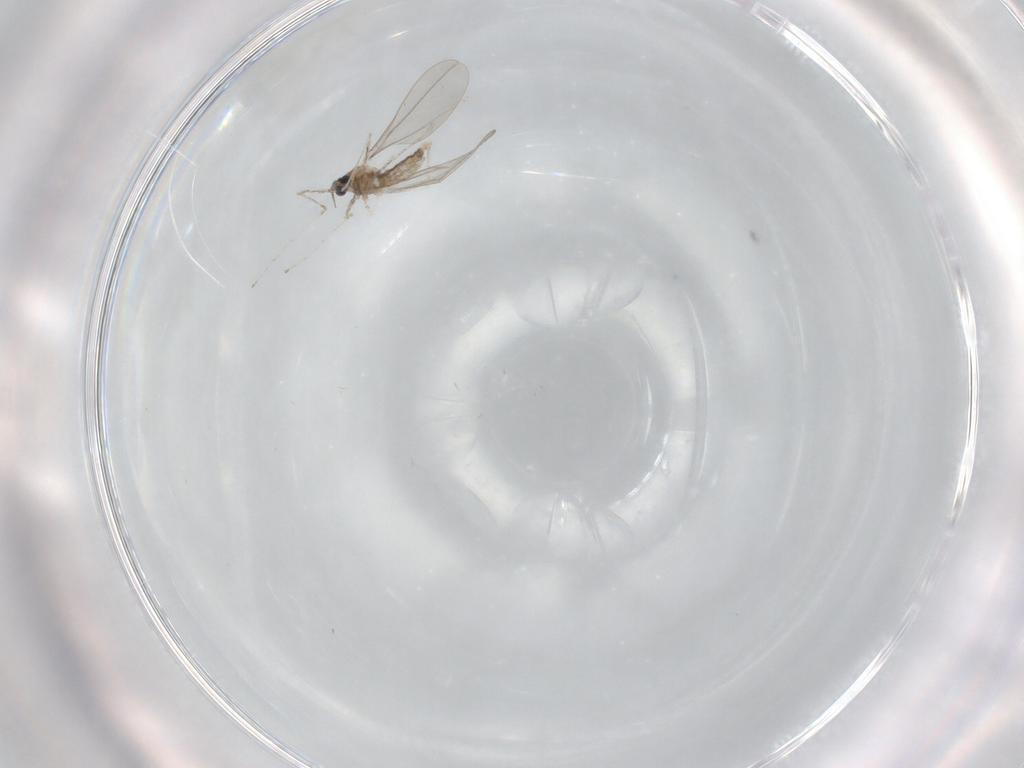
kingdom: Animalia
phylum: Arthropoda
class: Insecta
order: Diptera
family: Cecidomyiidae
